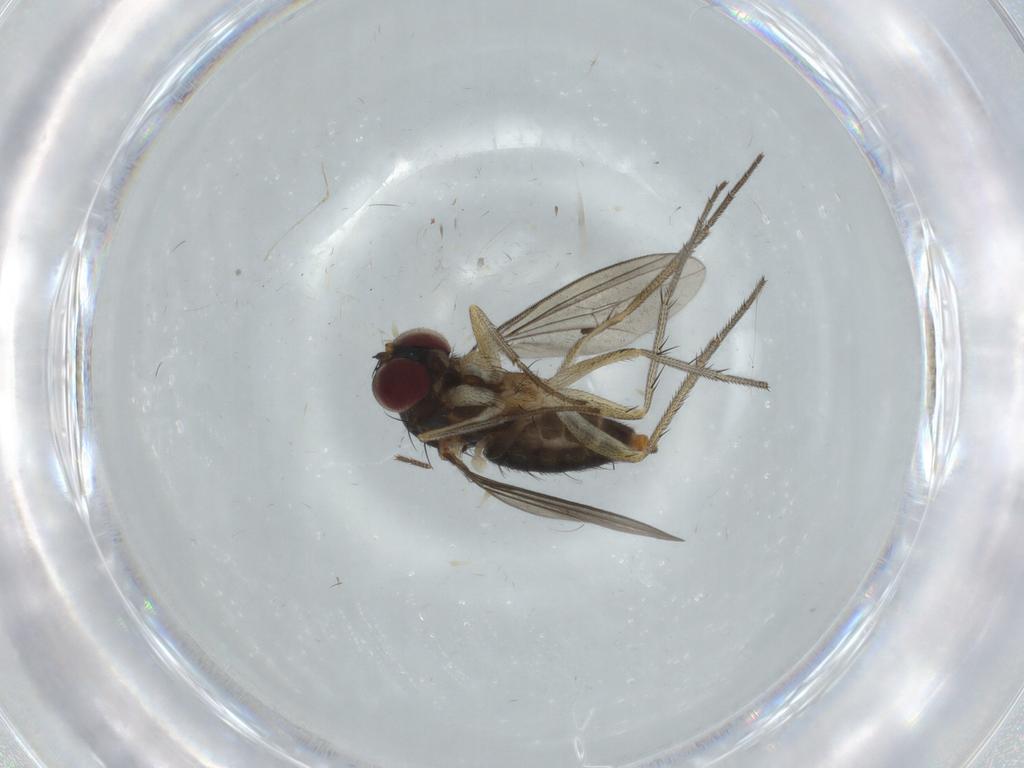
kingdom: Animalia
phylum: Arthropoda
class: Insecta
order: Diptera
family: Dolichopodidae
